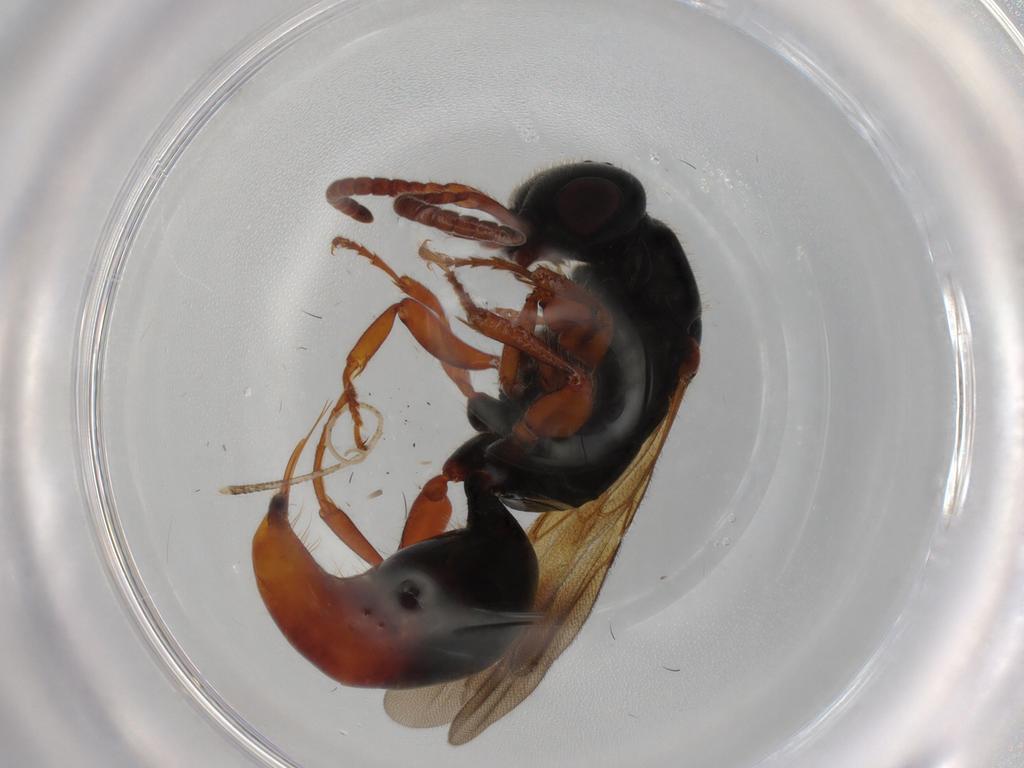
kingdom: Animalia
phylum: Arthropoda
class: Insecta
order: Hymenoptera
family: Bethylidae
